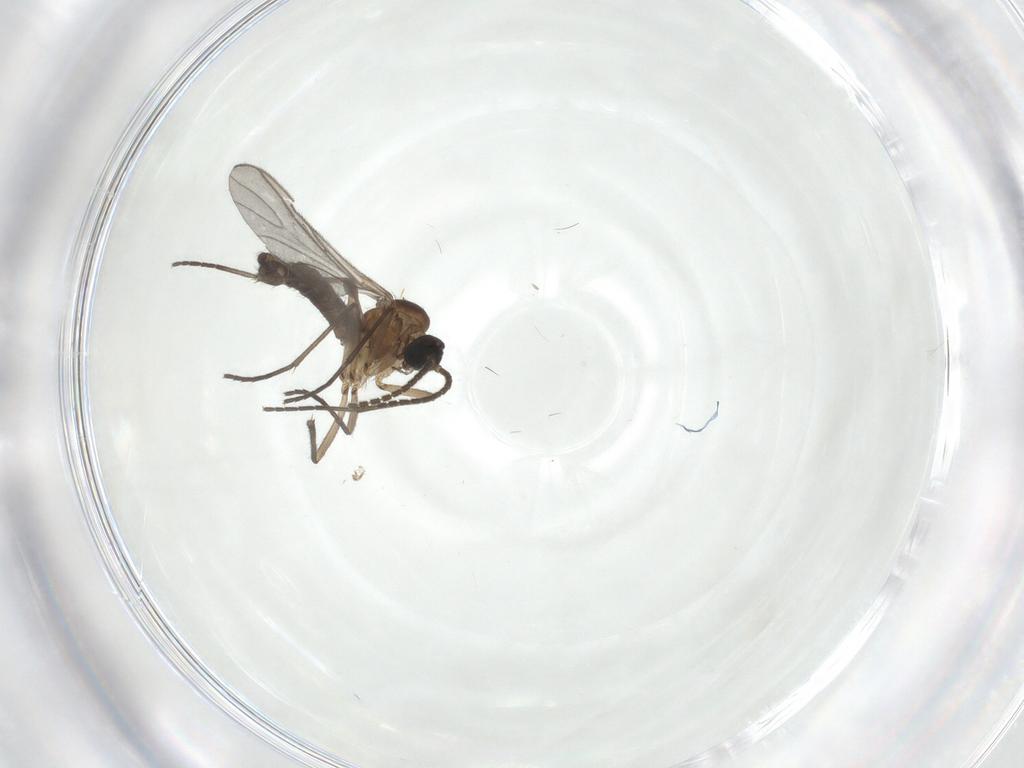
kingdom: Animalia
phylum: Arthropoda
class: Insecta
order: Diptera
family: Sciaridae
